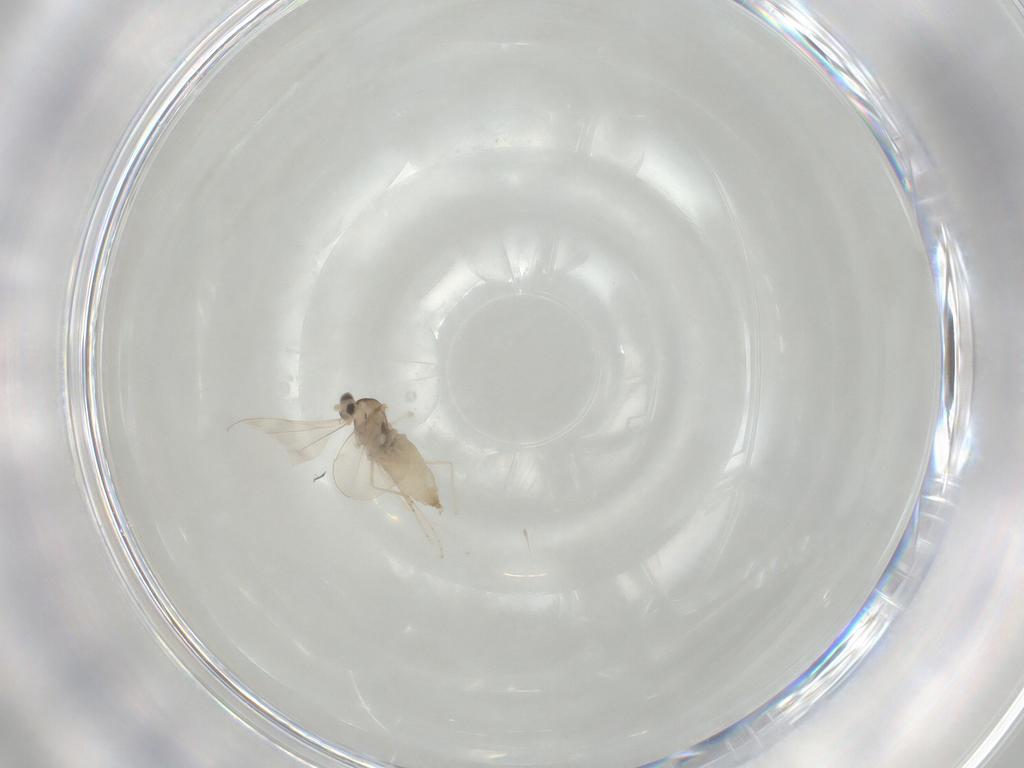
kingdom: Animalia
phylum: Arthropoda
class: Insecta
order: Diptera
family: Cecidomyiidae
